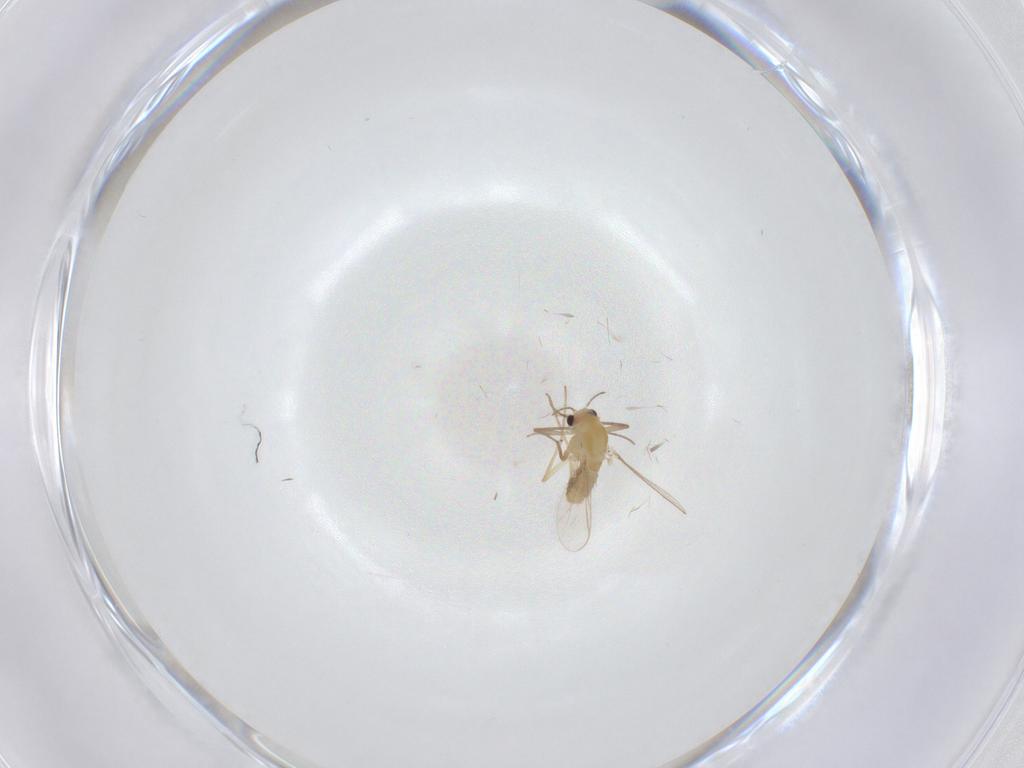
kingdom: Animalia
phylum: Arthropoda
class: Insecta
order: Diptera
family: Chironomidae
